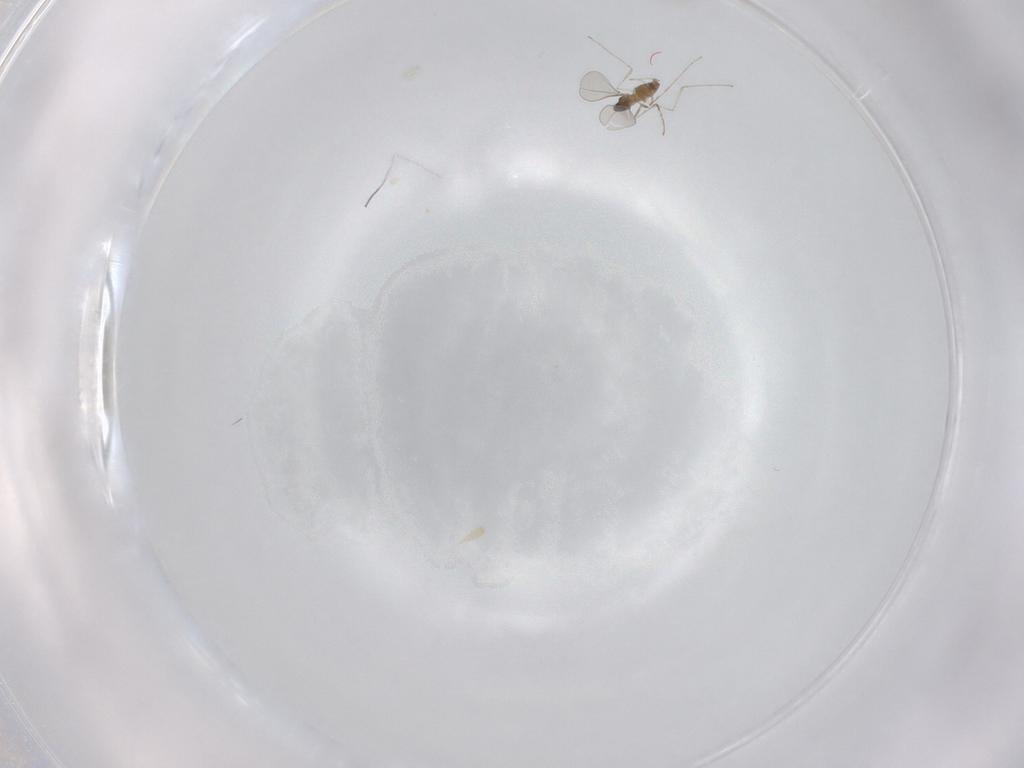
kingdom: Animalia
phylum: Arthropoda
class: Insecta
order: Diptera
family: Cecidomyiidae
